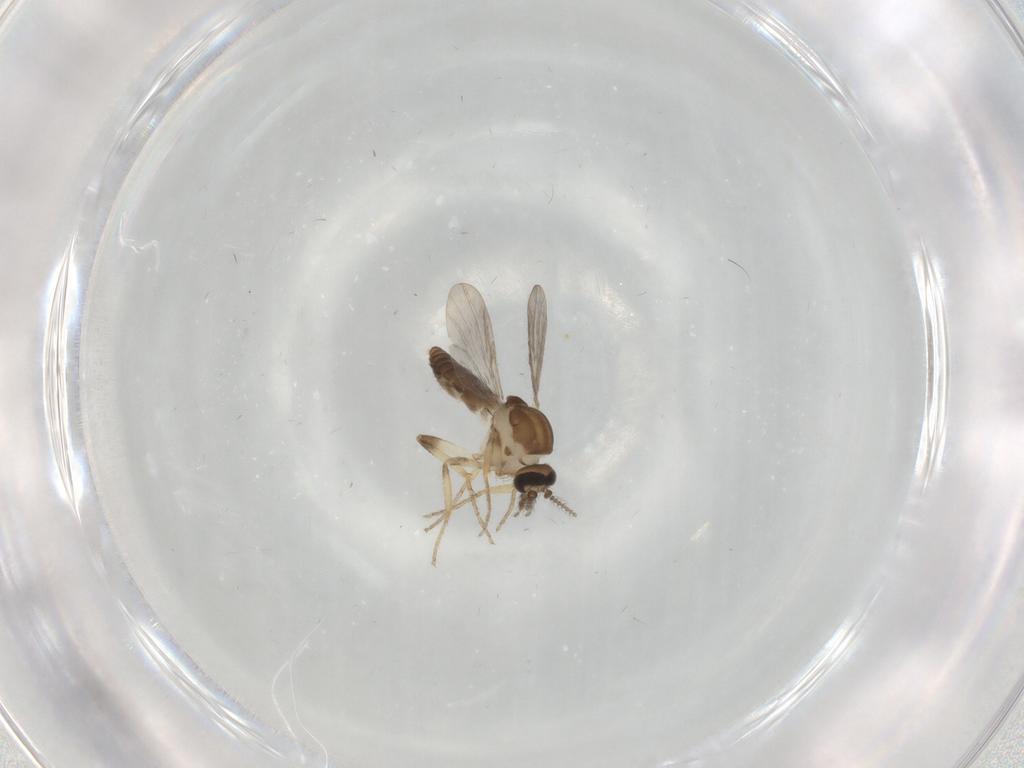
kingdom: Animalia
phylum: Arthropoda
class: Insecta
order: Diptera
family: Ceratopogonidae
